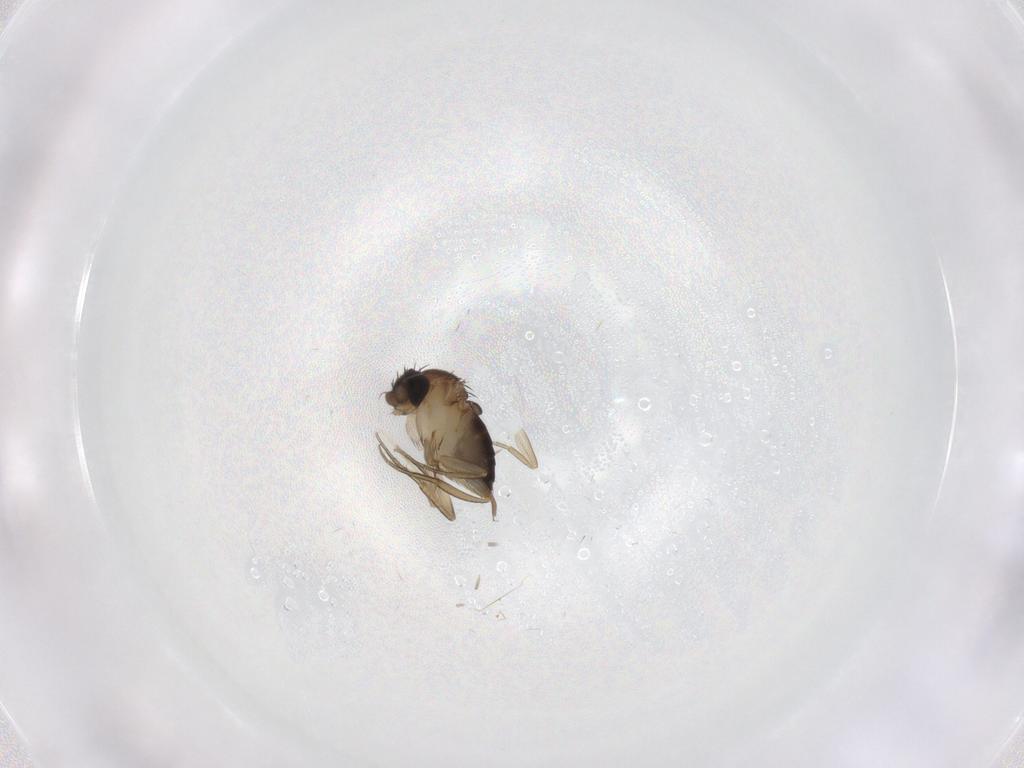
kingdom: Animalia
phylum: Arthropoda
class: Insecta
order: Diptera
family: Chironomidae
